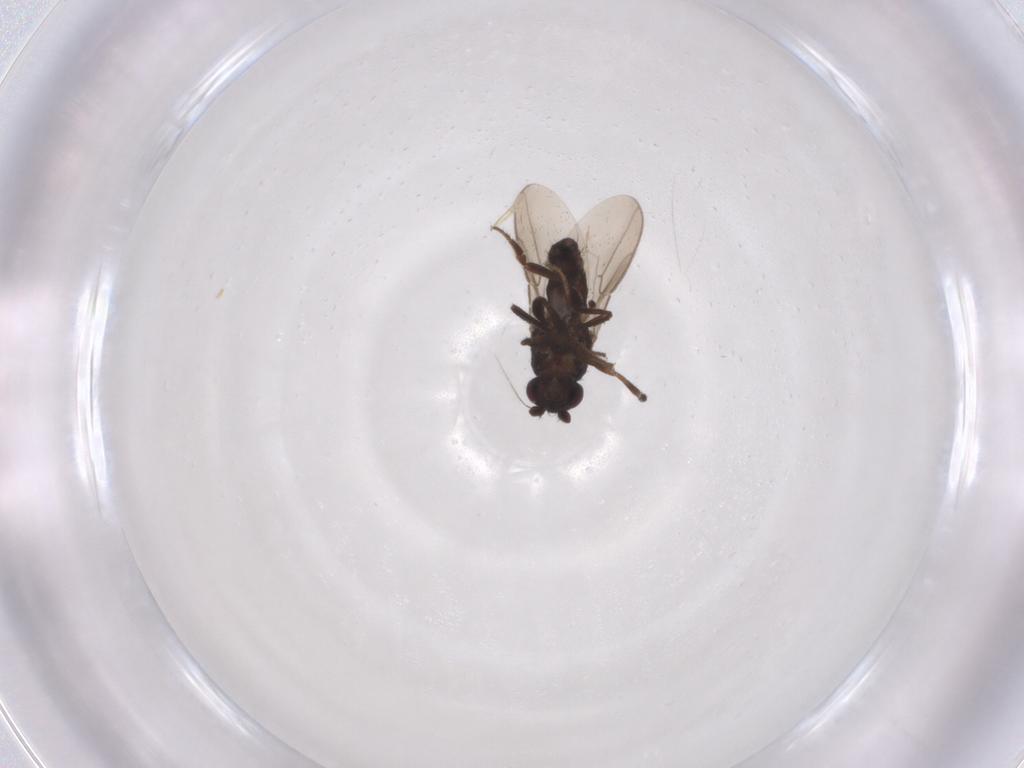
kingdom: Animalia
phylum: Arthropoda
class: Insecta
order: Diptera
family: Sphaeroceridae
